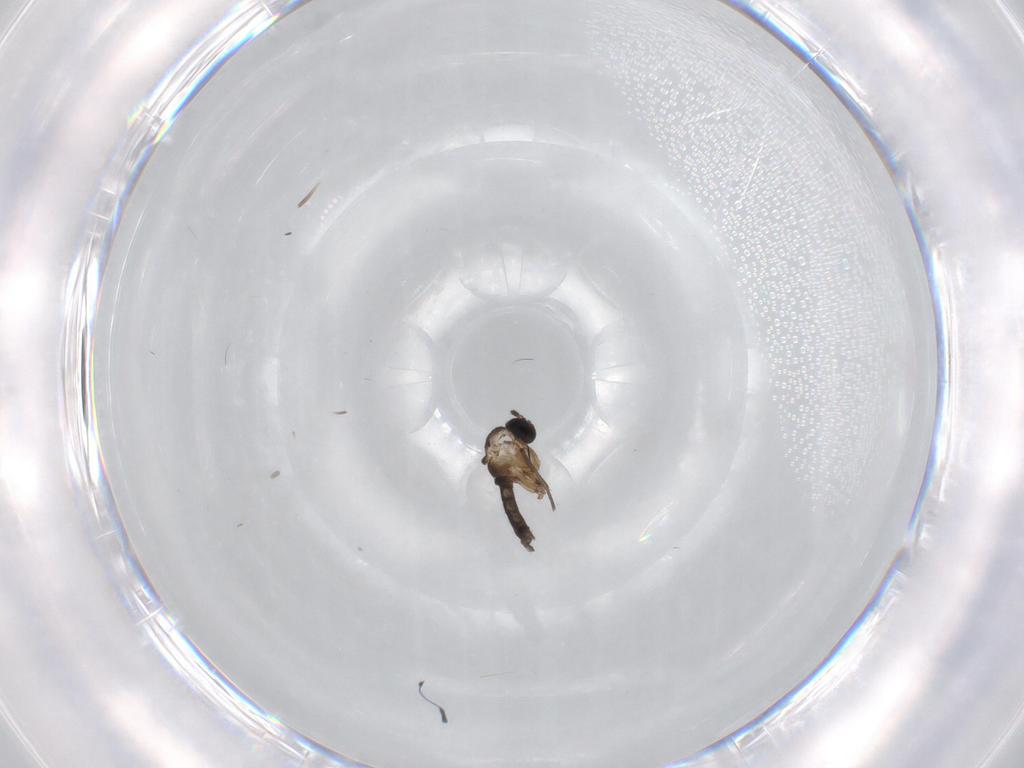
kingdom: Animalia
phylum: Arthropoda
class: Insecta
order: Diptera
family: Sciaridae
